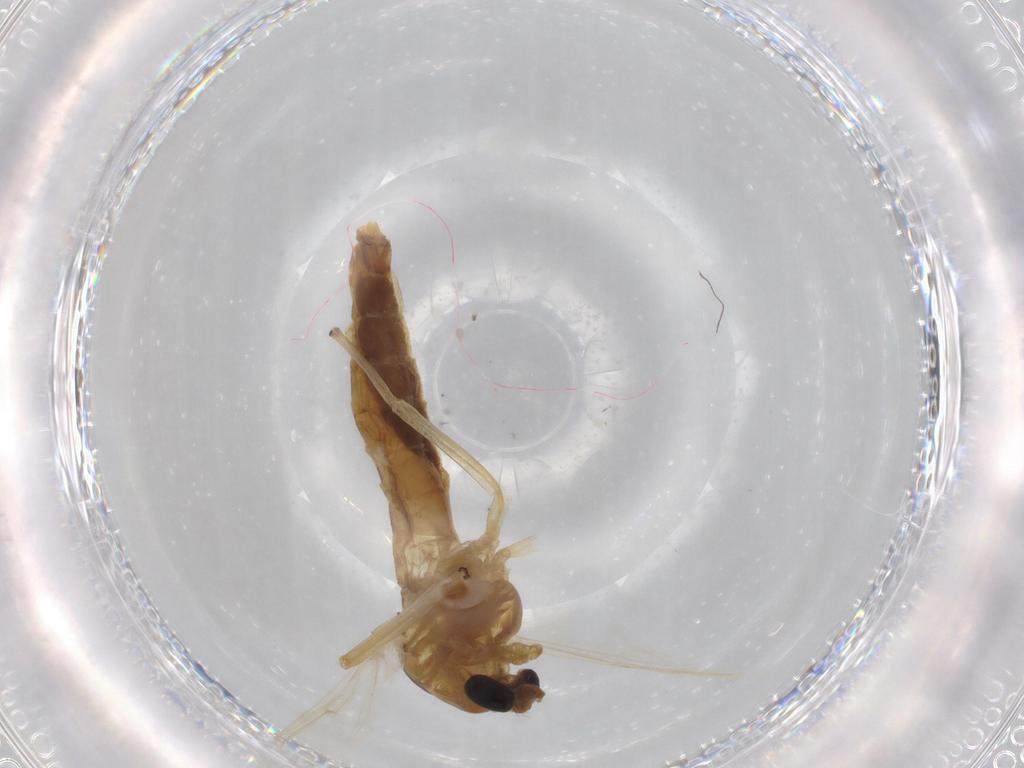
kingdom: Animalia
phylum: Arthropoda
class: Insecta
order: Diptera
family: Chironomidae
